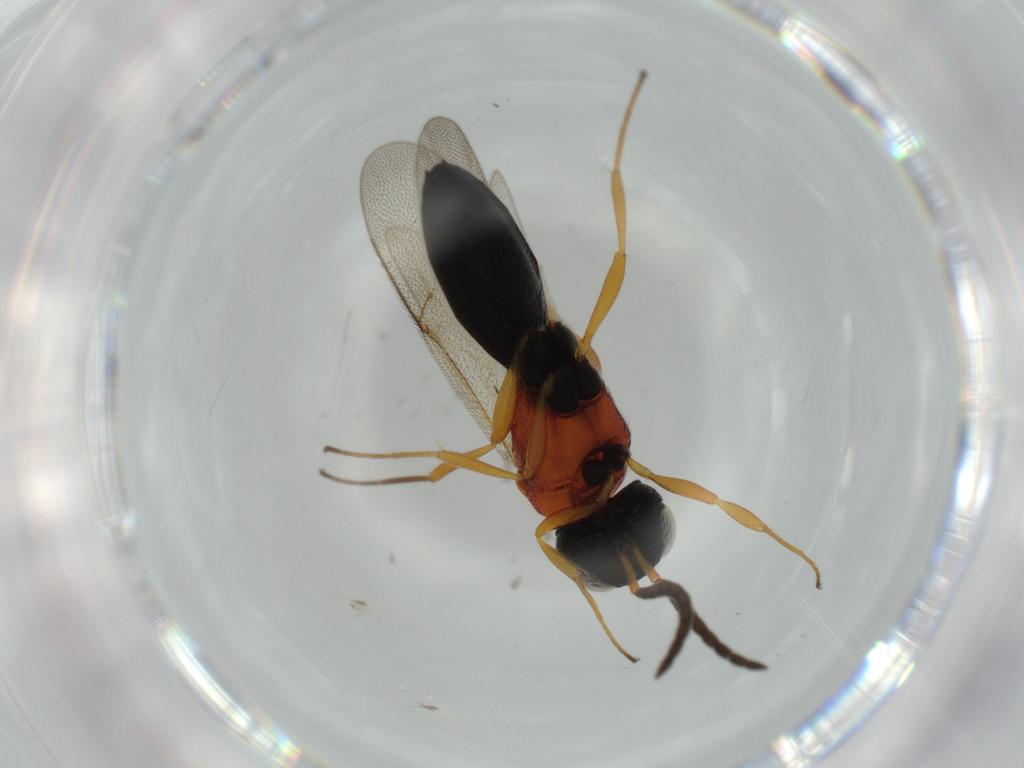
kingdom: Animalia
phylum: Arthropoda
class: Insecta
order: Hymenoptera
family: Scelionidae
